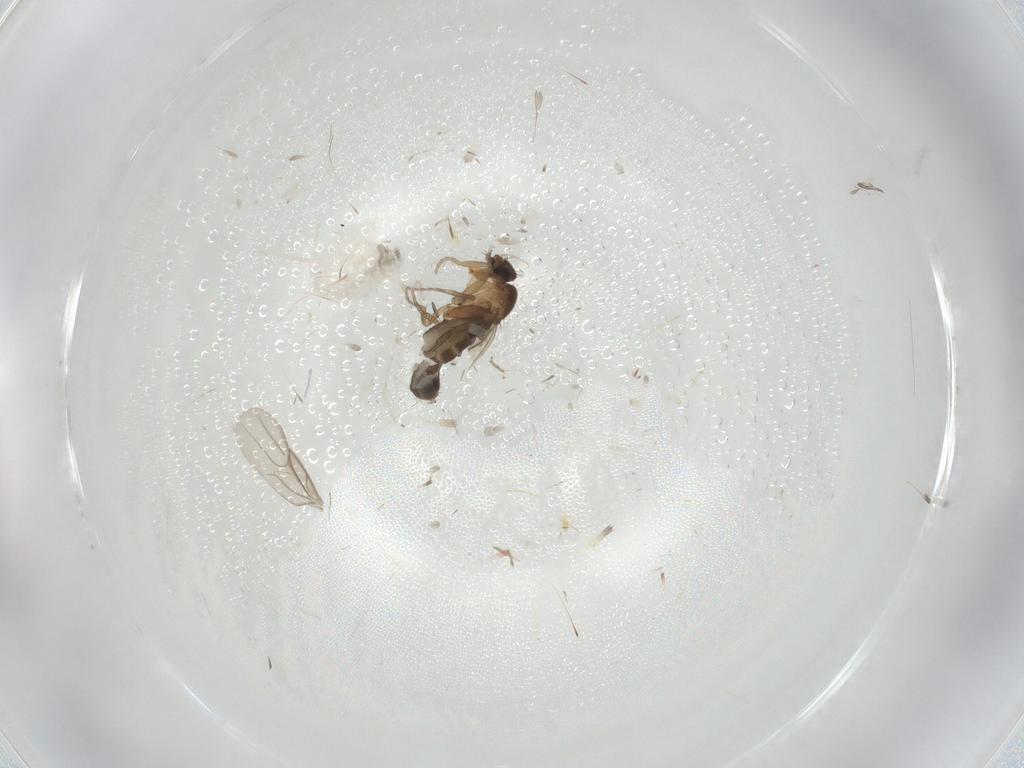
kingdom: Animalia
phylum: Arthropoda
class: Insecta
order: Diptera
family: Phoridae
